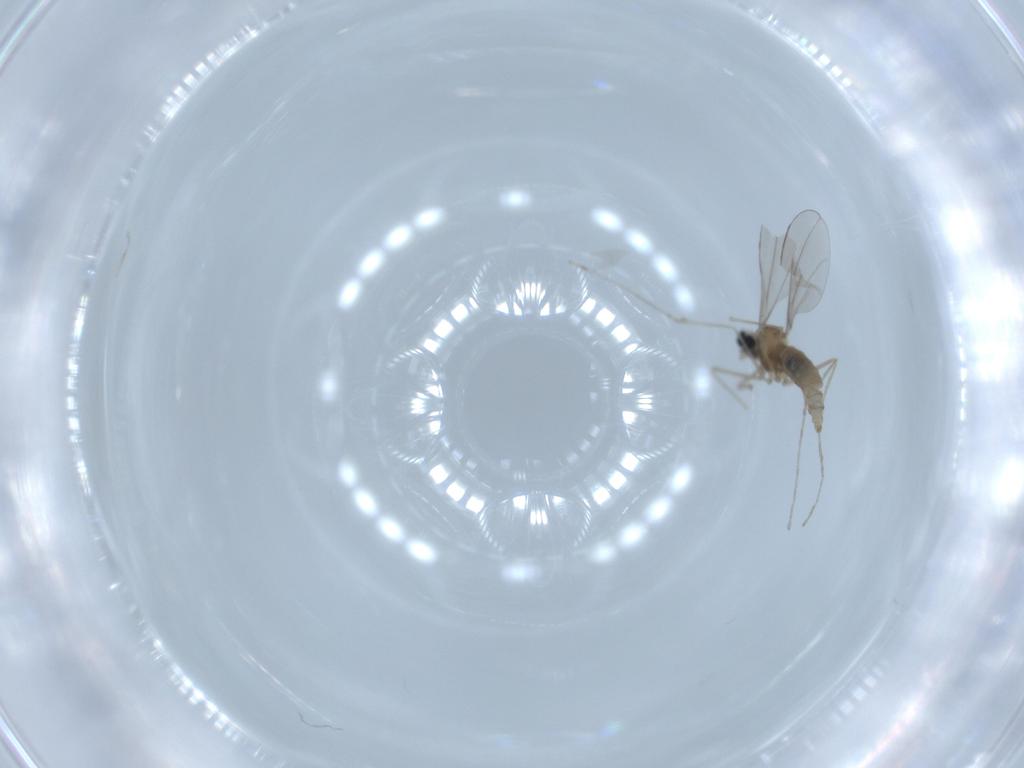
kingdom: Animalia
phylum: Arthropoda
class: Insecta
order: Diptera
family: Cecidomyiidae
